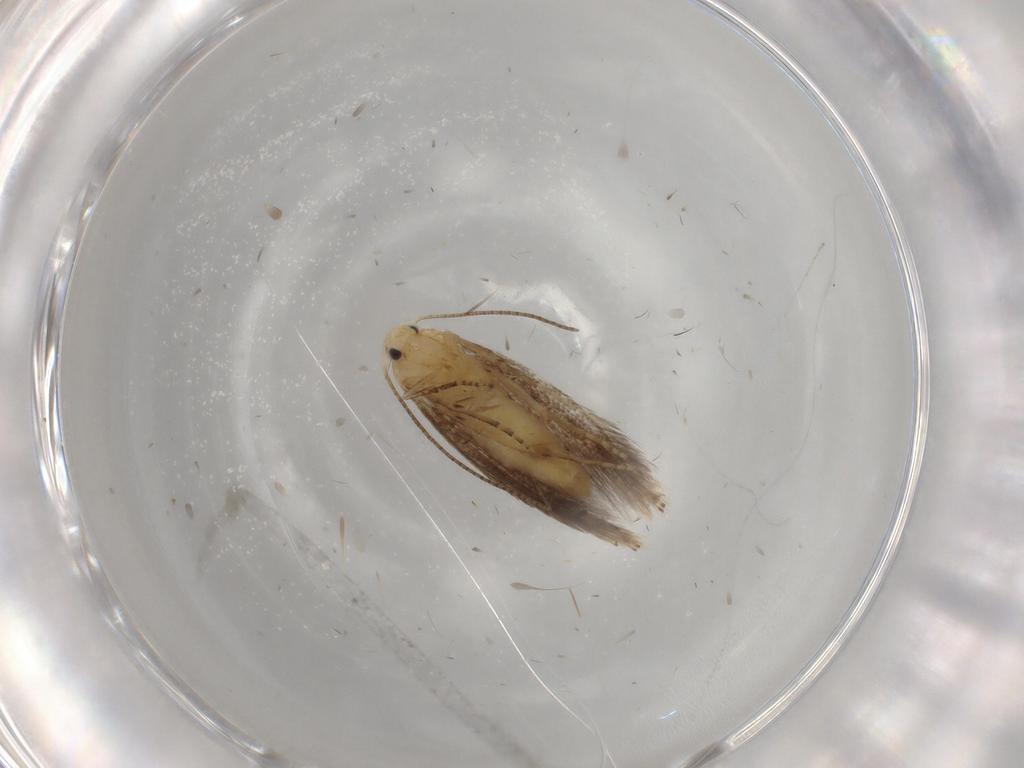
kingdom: Animalia
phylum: Arthropoda
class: Insecta
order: Lepidoptera
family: Bucculatricidae
